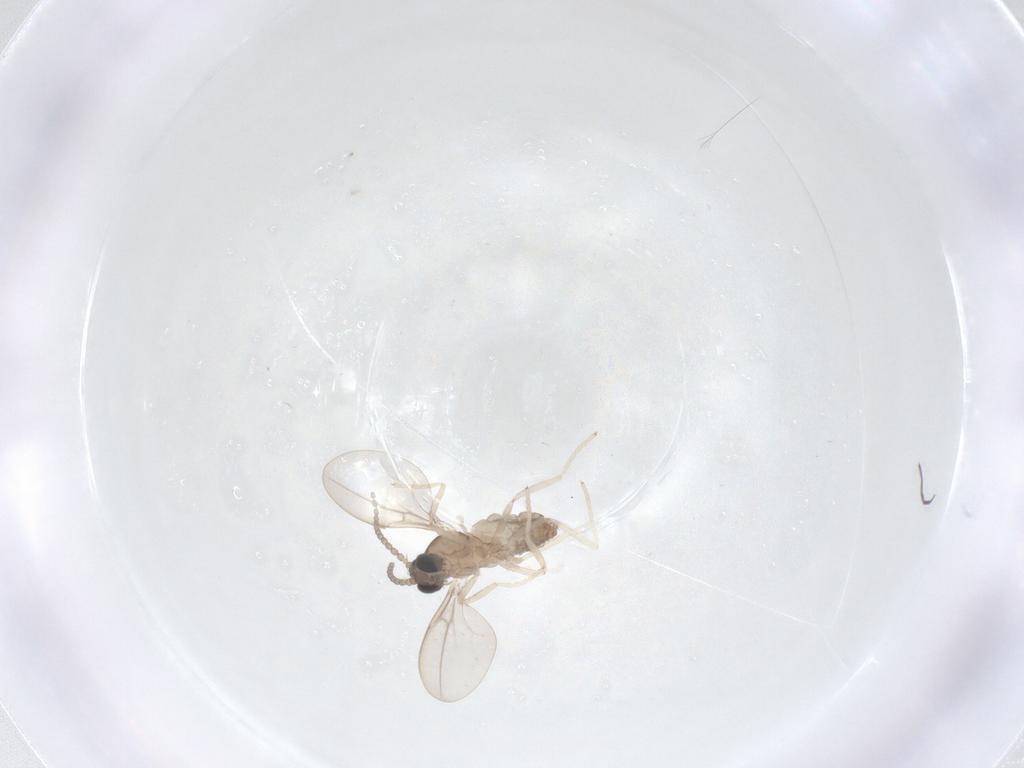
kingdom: Animalia
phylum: Arthropoda
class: Insecta
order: Diptera
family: Cecidomyiidae
